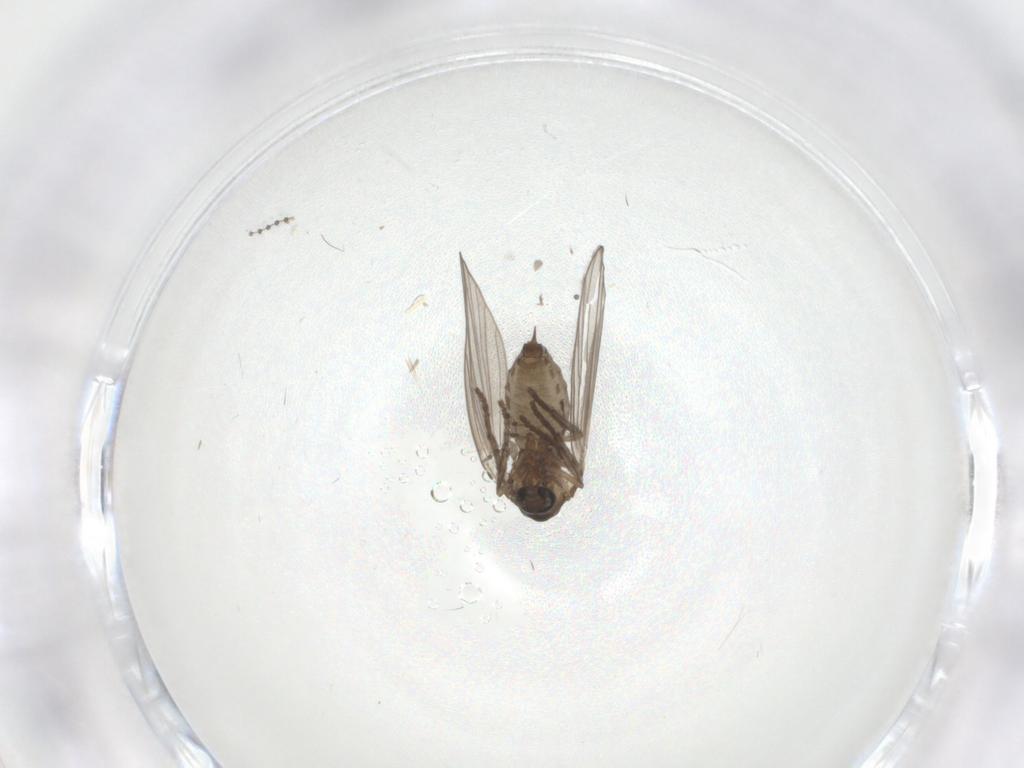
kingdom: Animalia
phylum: Arthropoda
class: Insecta
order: Diptera
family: Psychodidae
